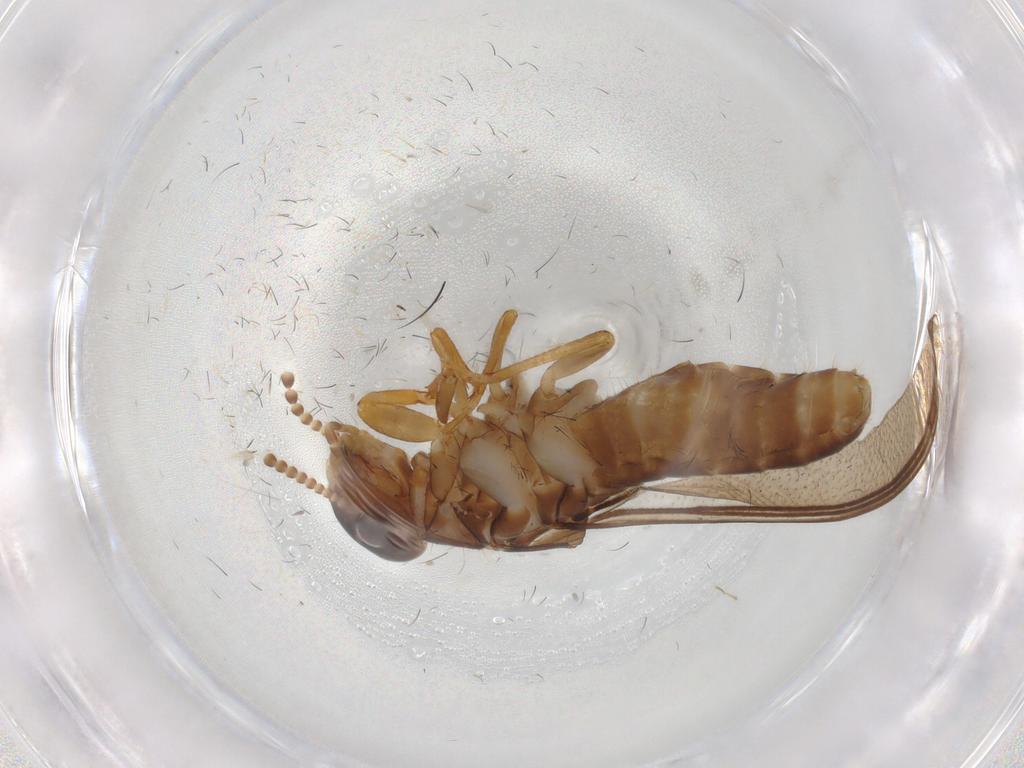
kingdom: Animalia
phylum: Arthropoda
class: Insecta
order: Blattodea
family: Kalotermitidae
